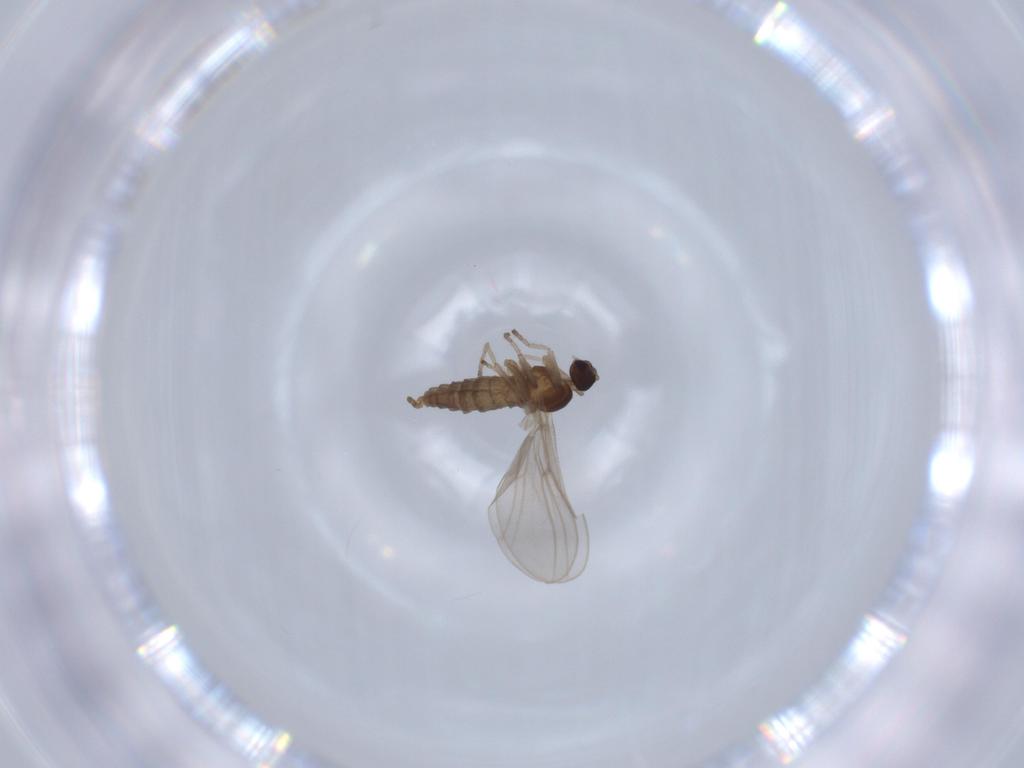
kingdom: Animalia
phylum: Arthropoda
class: Insecta
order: Diptera
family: Ephydridae
